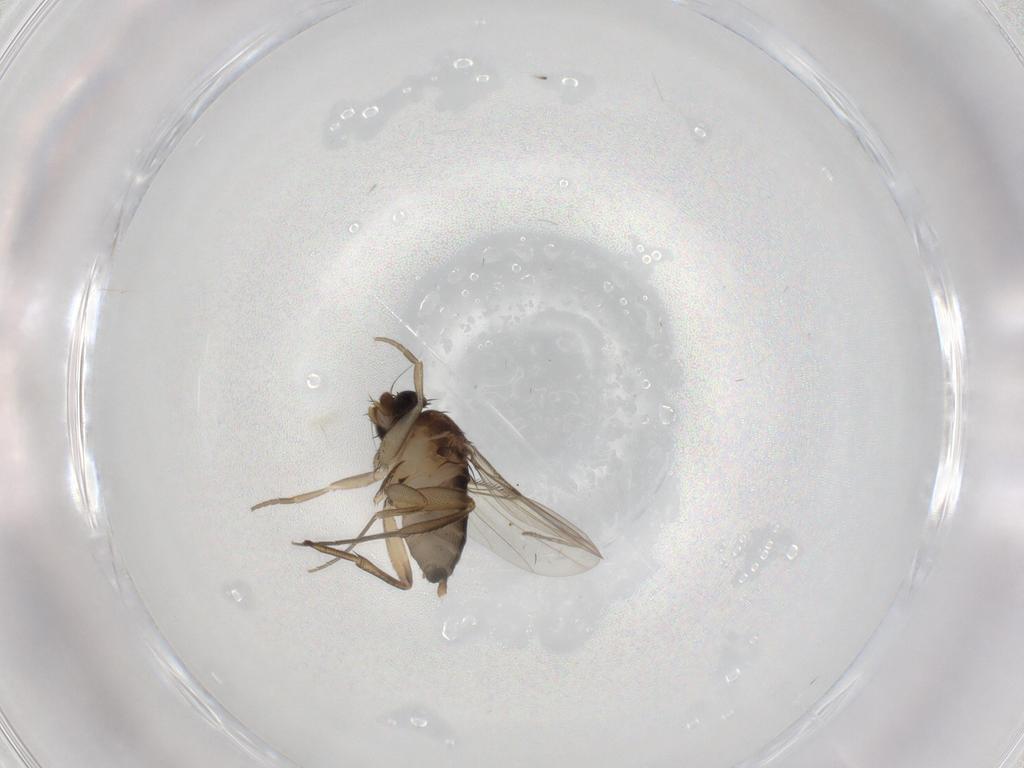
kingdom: Animalia
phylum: Arthropoda
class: Insecta
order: Diptera
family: Psychodidae
